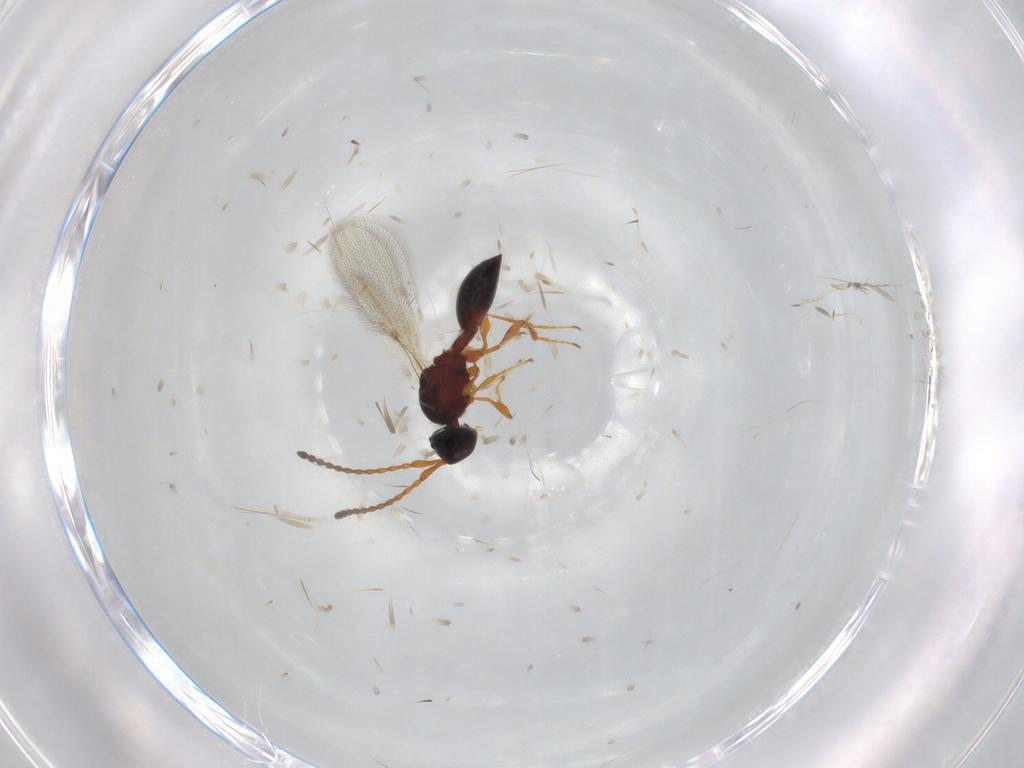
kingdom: Animalia
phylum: Arthropoda
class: Insecta
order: Hymenoptera
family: Diapriidae
